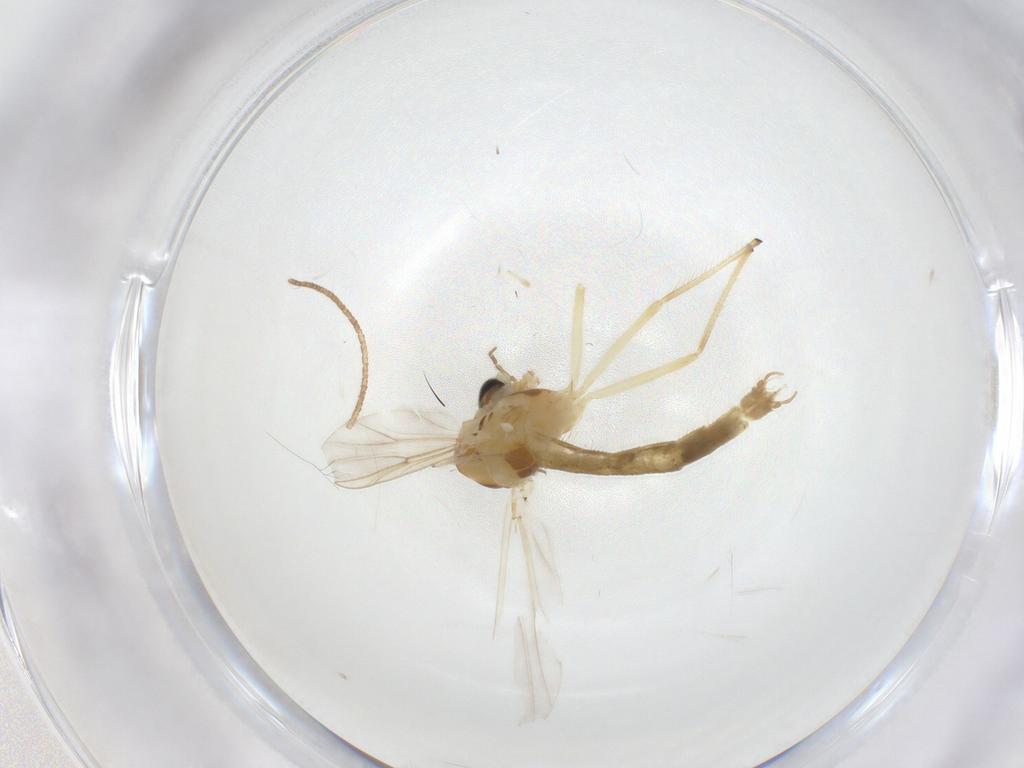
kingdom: Animalia
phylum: Arthropoda
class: Insecta
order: Diptera
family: Chironomidae
